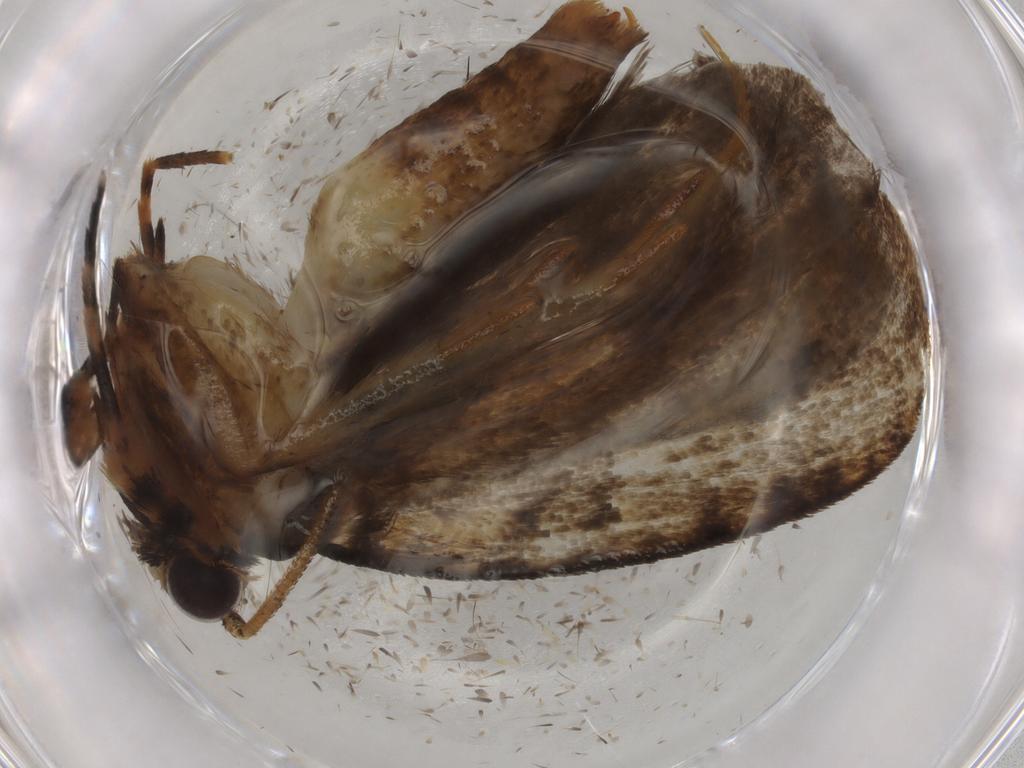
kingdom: Animalia
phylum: Arthropoda
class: Insecta
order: Lepidoptera
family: Tineidae
